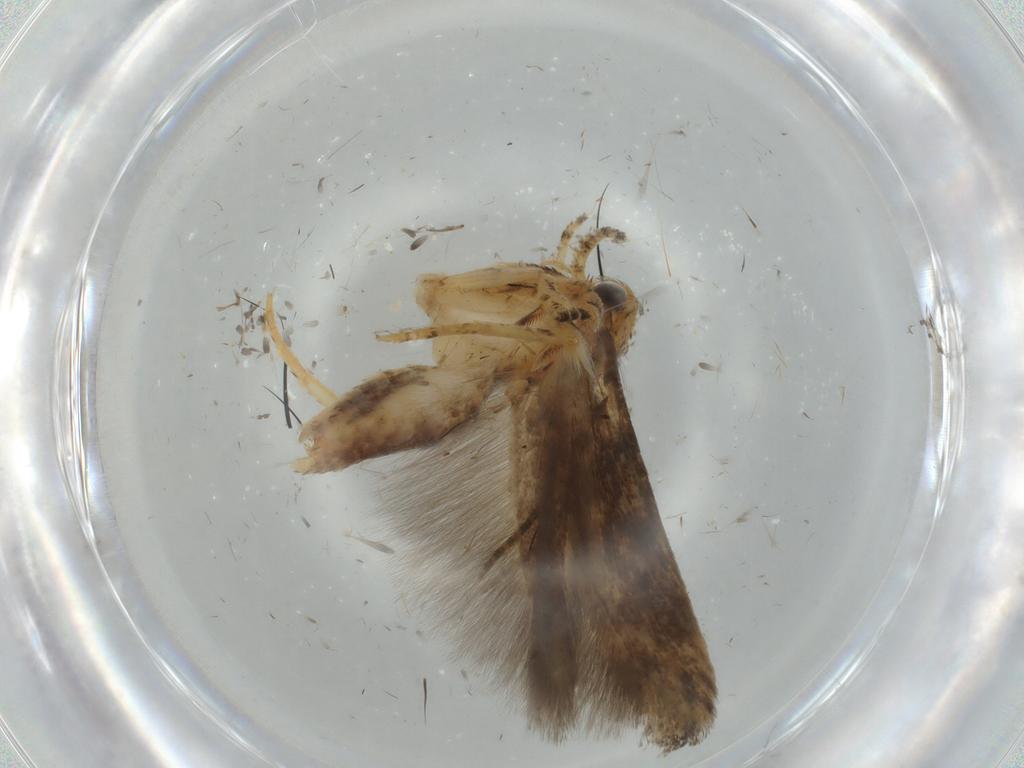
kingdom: Animalia
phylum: Arthropoda
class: Insecta
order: Lepidoptera
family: Gelechiidae
